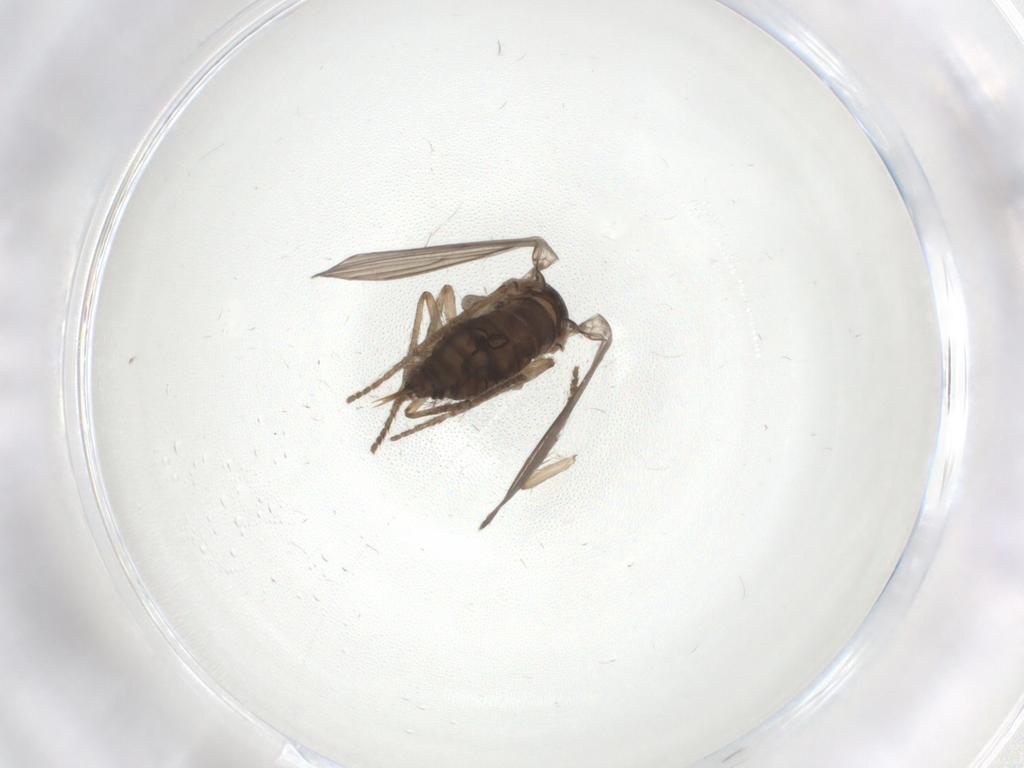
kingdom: Animalia
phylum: Arthropoda
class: Insecta
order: Diptera
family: Psychodidae
